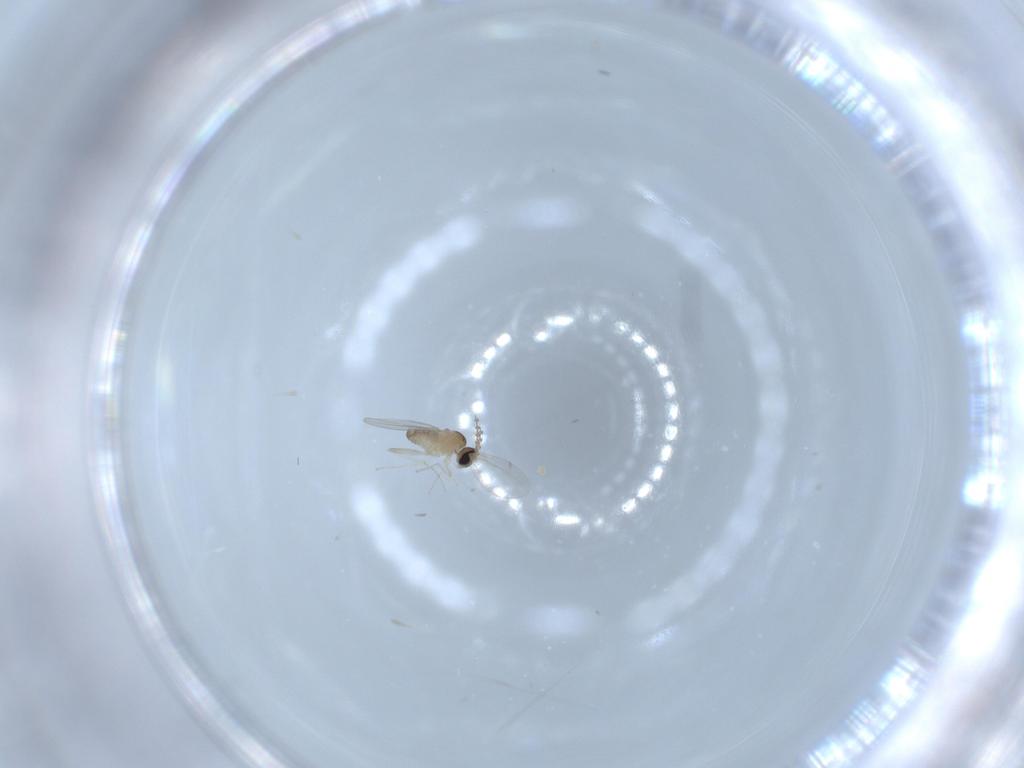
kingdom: Animalia
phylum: Arthropoda
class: Insecta
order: Diptera
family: Cecidomyiidae
